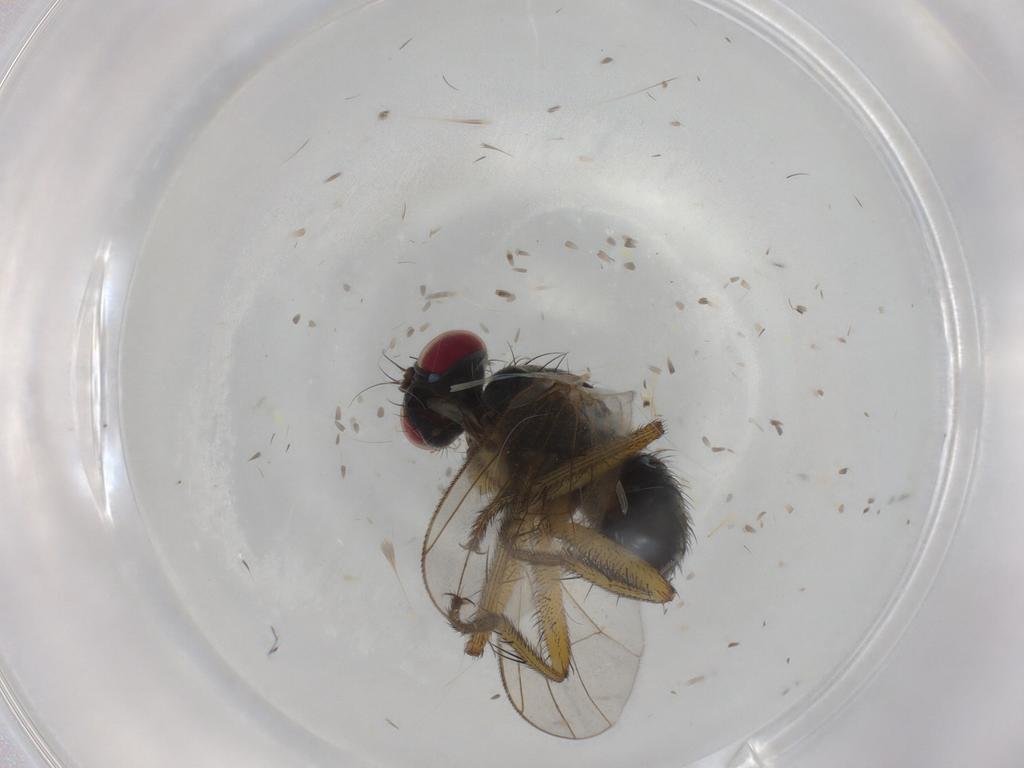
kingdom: Animalia
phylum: Arthropoda
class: Insecta
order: Diptera
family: Muscidae
